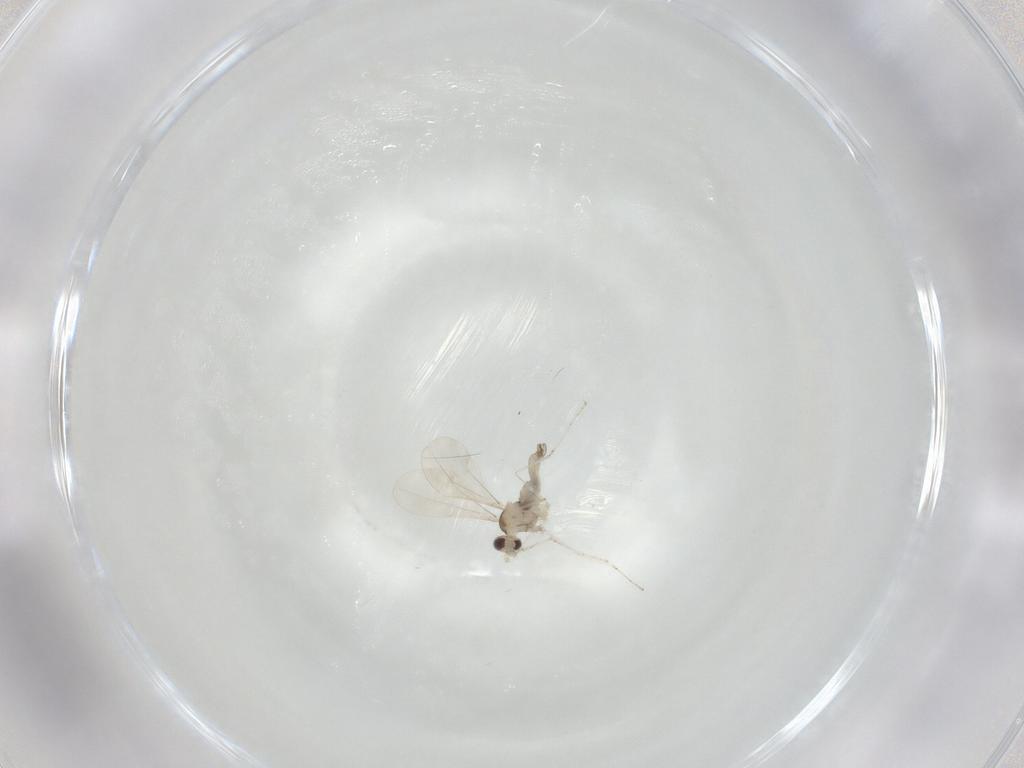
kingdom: Animalia
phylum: Arthropoda
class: Insecta
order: Diptera
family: Cecidomyiidae
